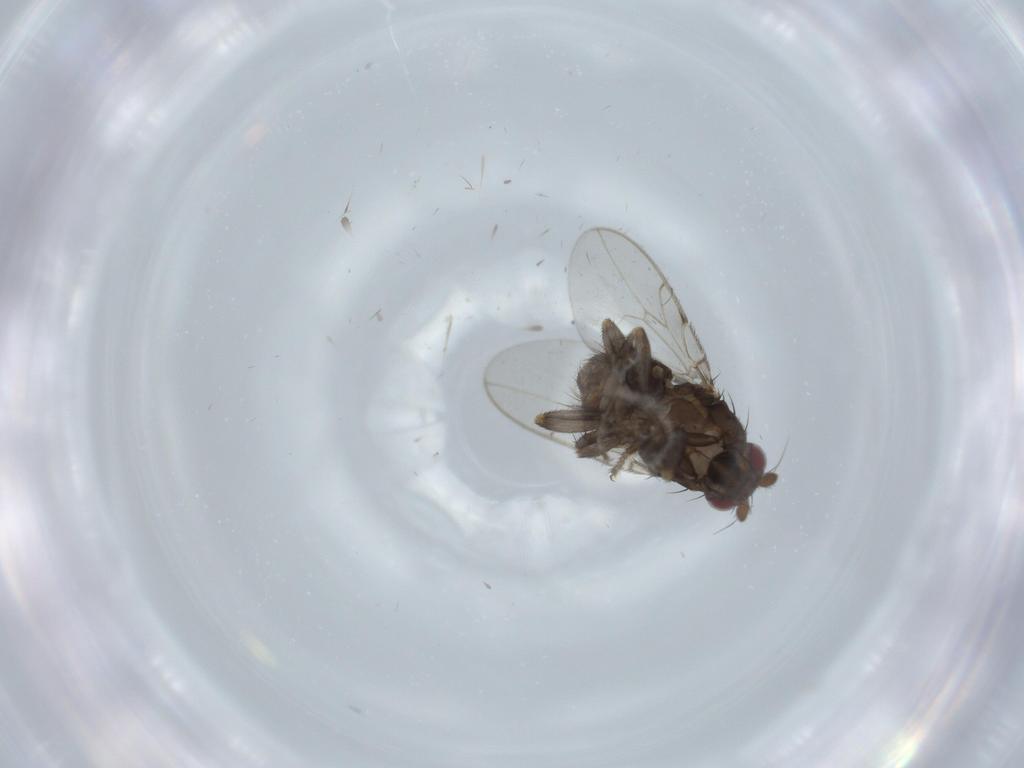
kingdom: Animalia
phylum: Arthropoda
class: Insecta
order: Diptera
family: Sphaeroceridae
